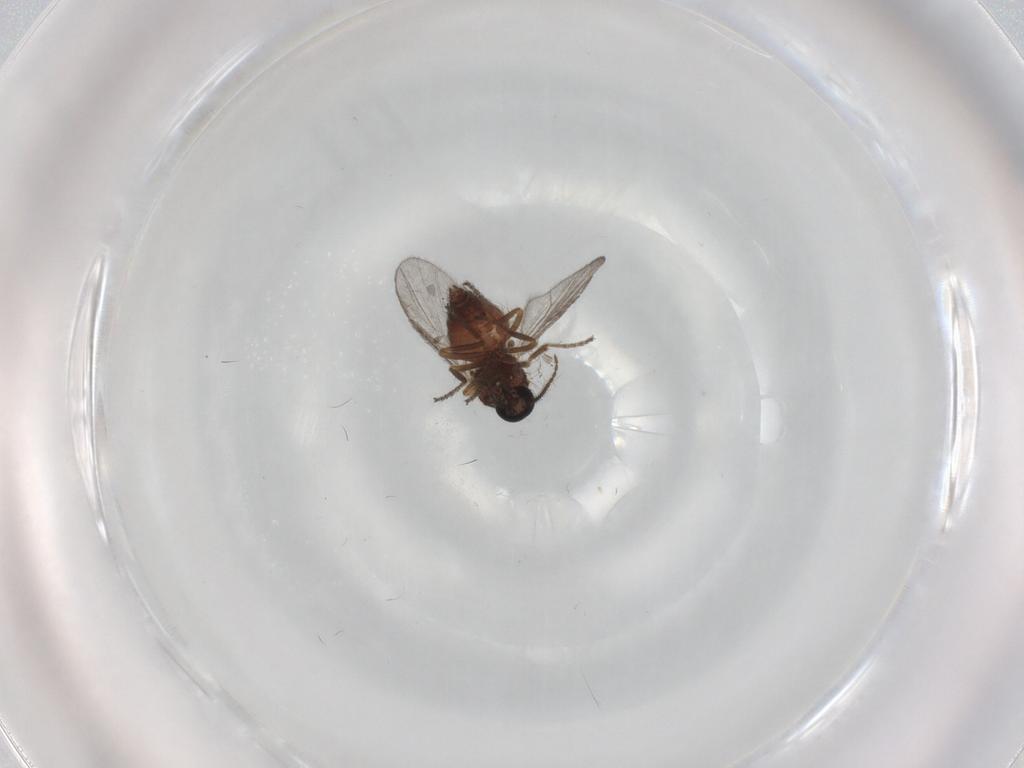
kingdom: Animalia
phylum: Arthropoda
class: Insecta
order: Diptera
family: Ceratopogonidae
